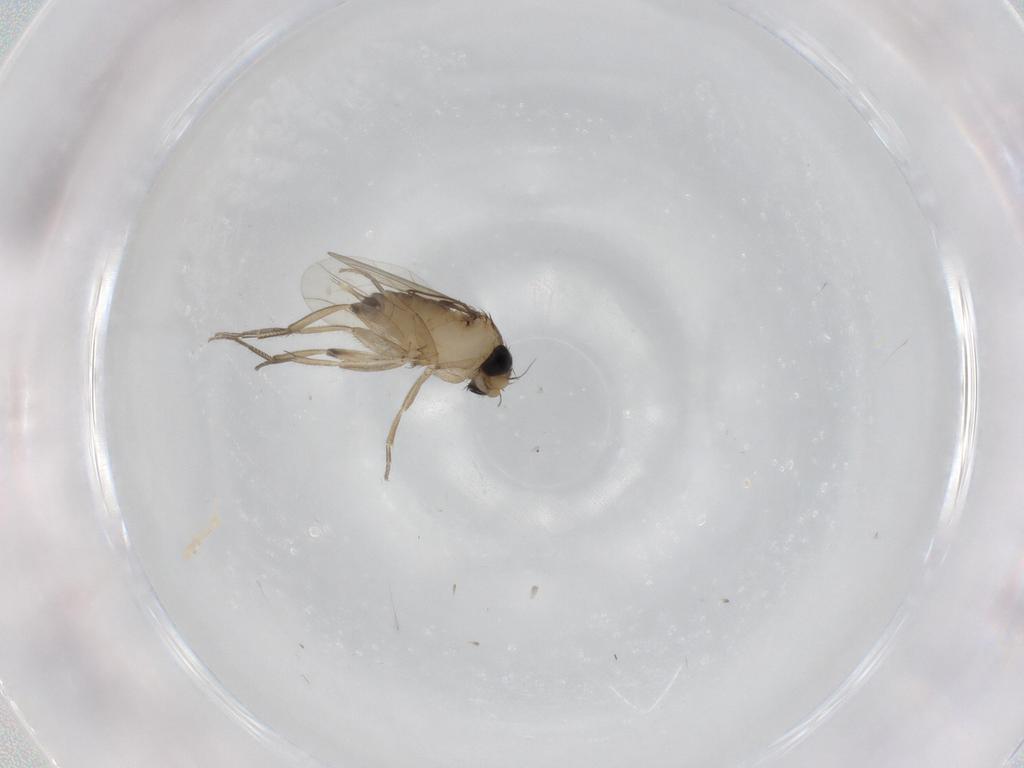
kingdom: Animalia
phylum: Arthropoda
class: Insecta
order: Diptera
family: Phoridae
